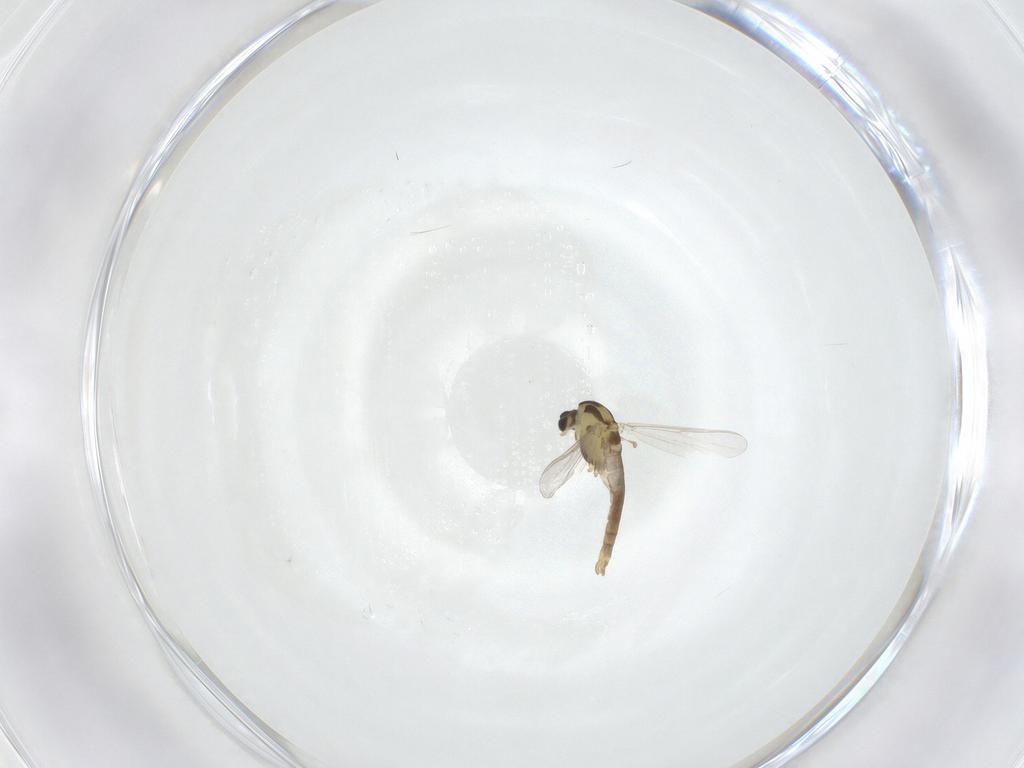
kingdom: Animalia
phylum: Arthropoda
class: Insecta
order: Diptera
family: Chironomidae
